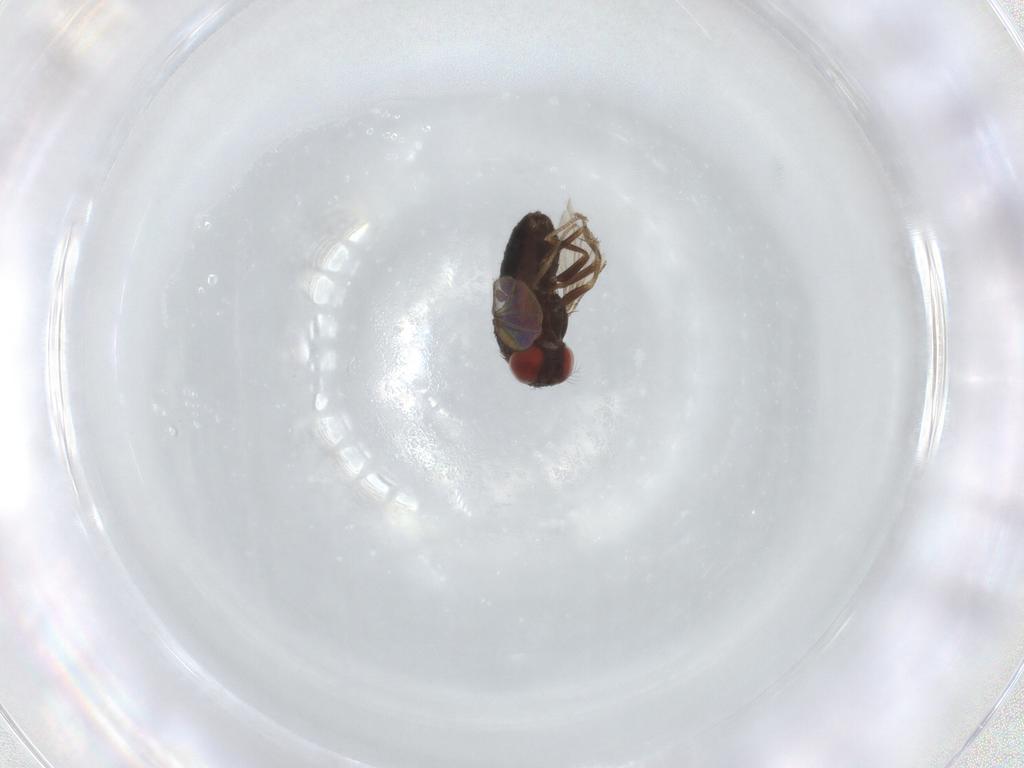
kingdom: Animalia
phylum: Arthropoda
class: Insecta
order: Diptera
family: Drosophilidae
